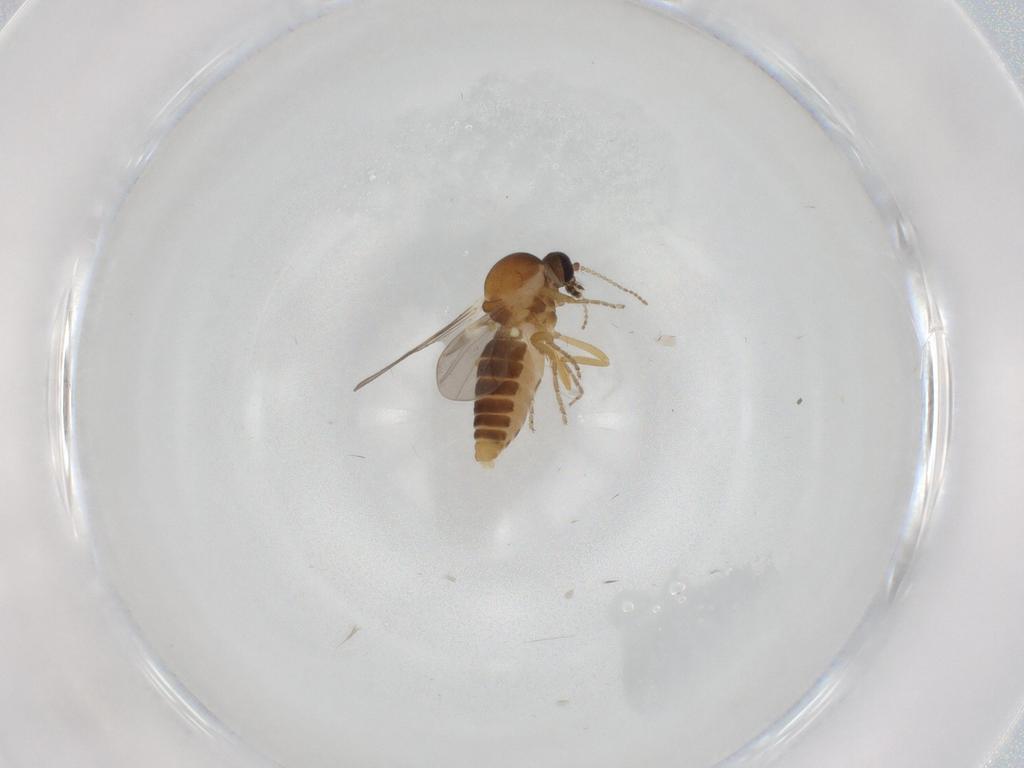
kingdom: Animalia
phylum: Arthropoda
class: Insecta
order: Diptera
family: Ceratopogonidae
